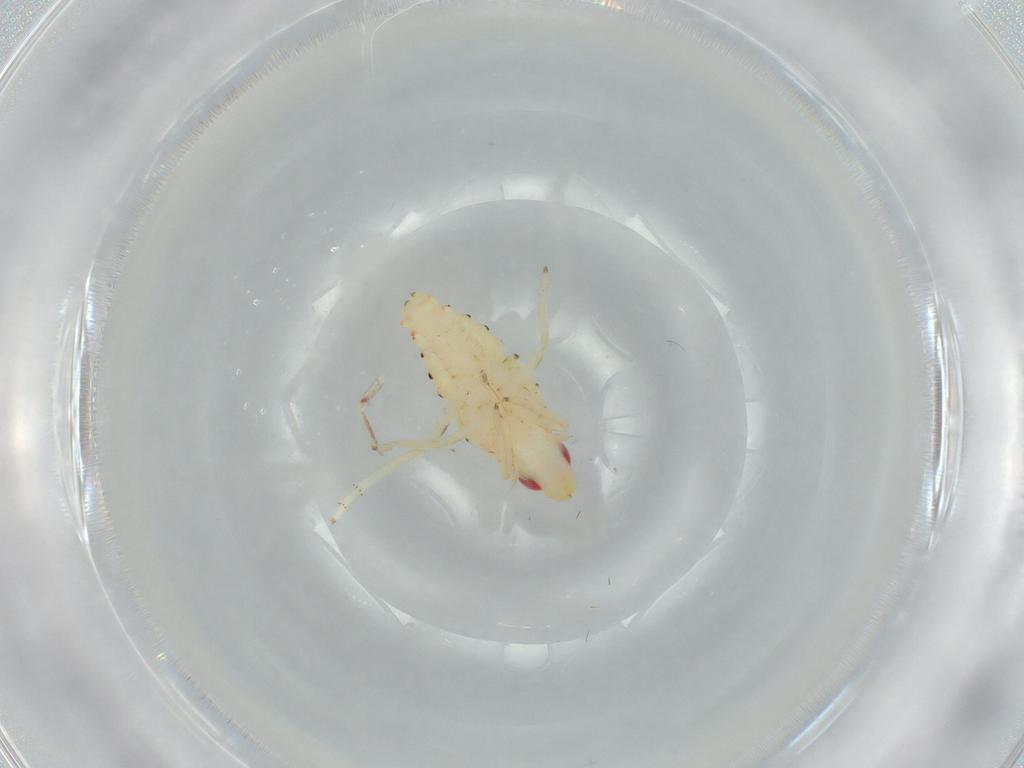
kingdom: Animalia
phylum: Arthropoda
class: Insecta
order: Hemiptera
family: Tropiduchidae
